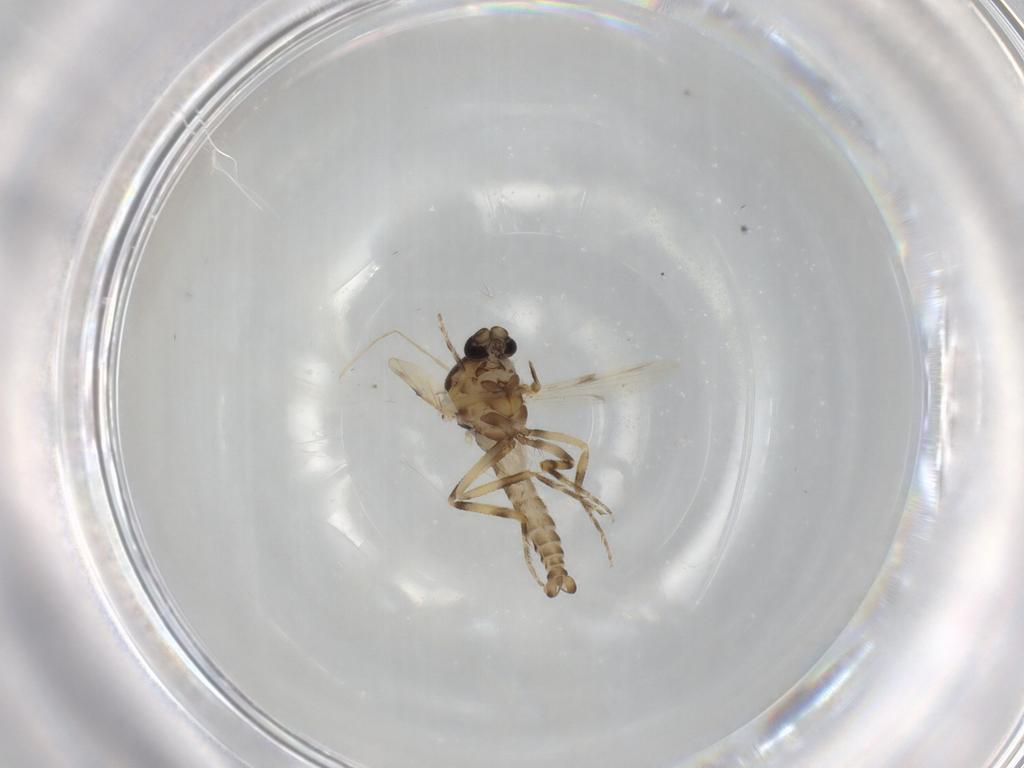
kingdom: Animalia
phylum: Arthropoda
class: Insecta
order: Diptera
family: Ceratopogonidae
